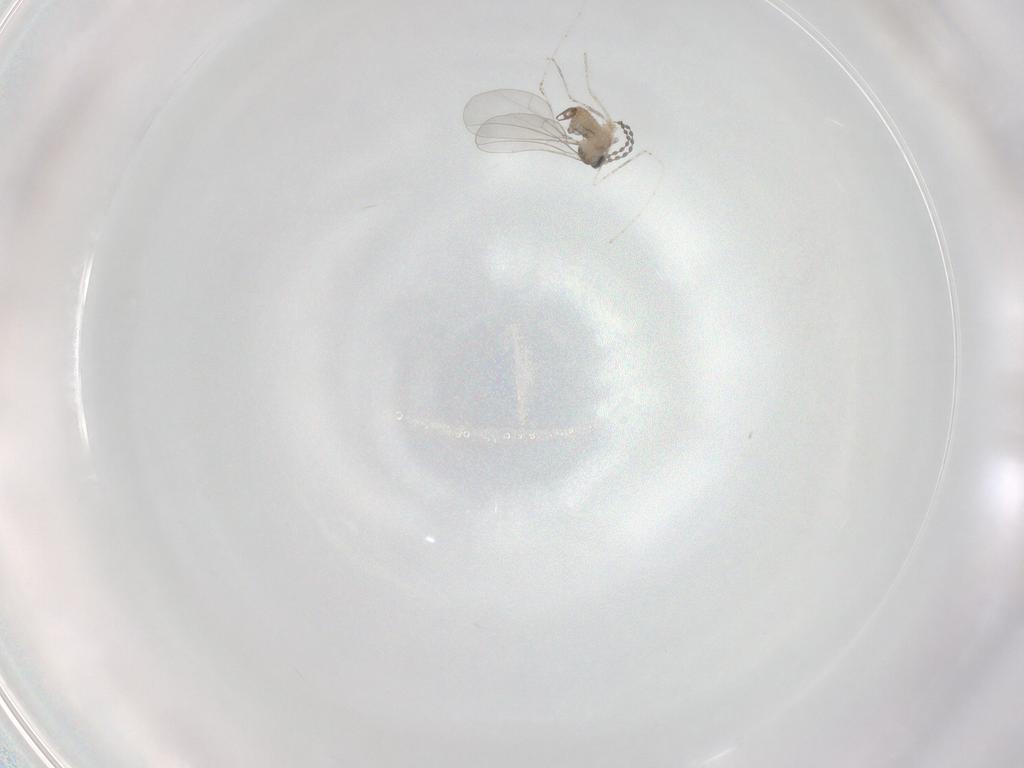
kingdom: Animalia
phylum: Arthropoda
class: Insecta
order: Diptera
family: Cecidomyiidae
